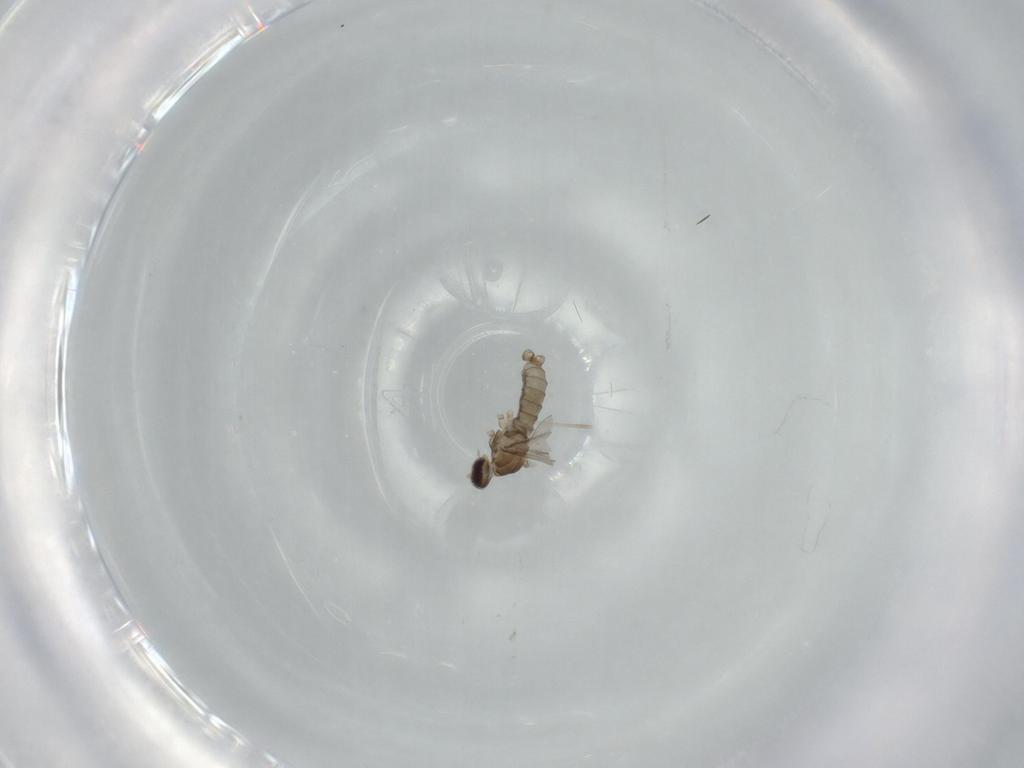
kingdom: Animalia
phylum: Arthropoda
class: Insecta
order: Diptera
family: Cecidomyiidae
